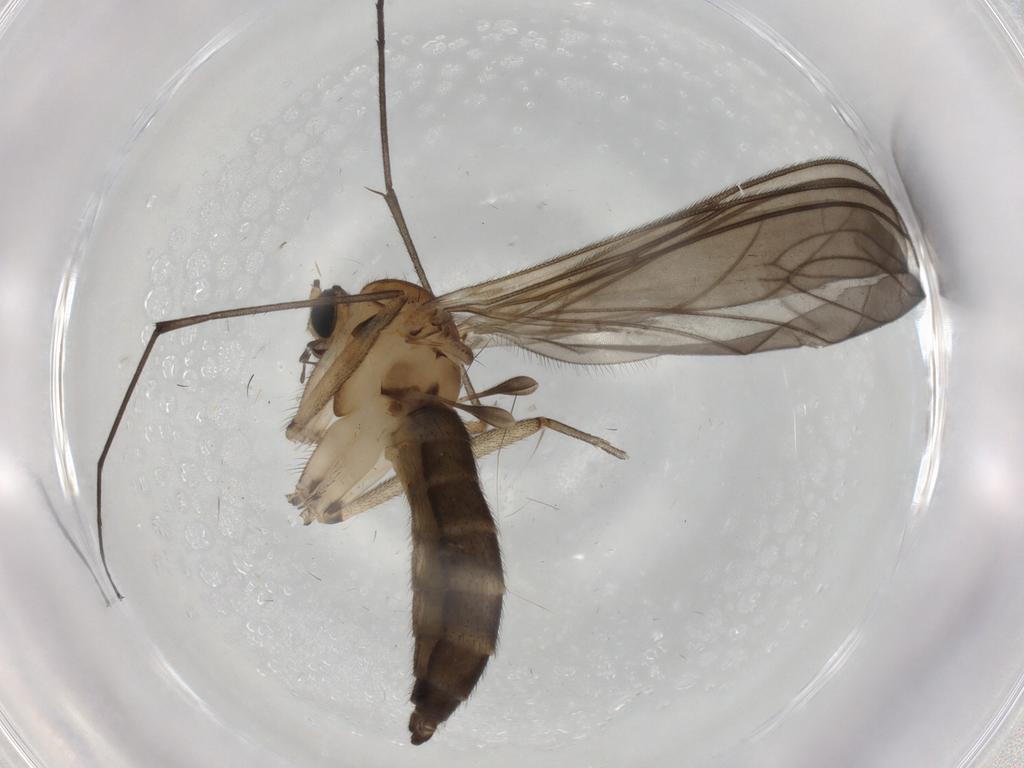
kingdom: Animalia
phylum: Arthropoda
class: Insecta
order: Diptera
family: Sciaridae
